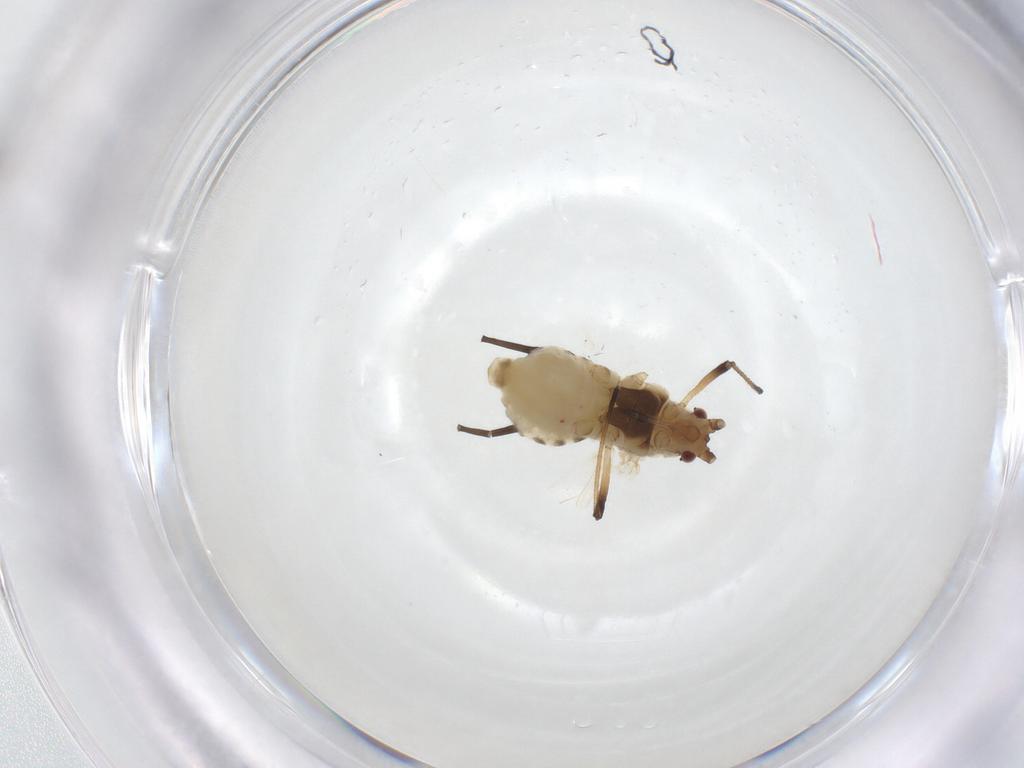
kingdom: Animalia
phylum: Arthropoda
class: Insecta
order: Hemiptera
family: Aphididae
